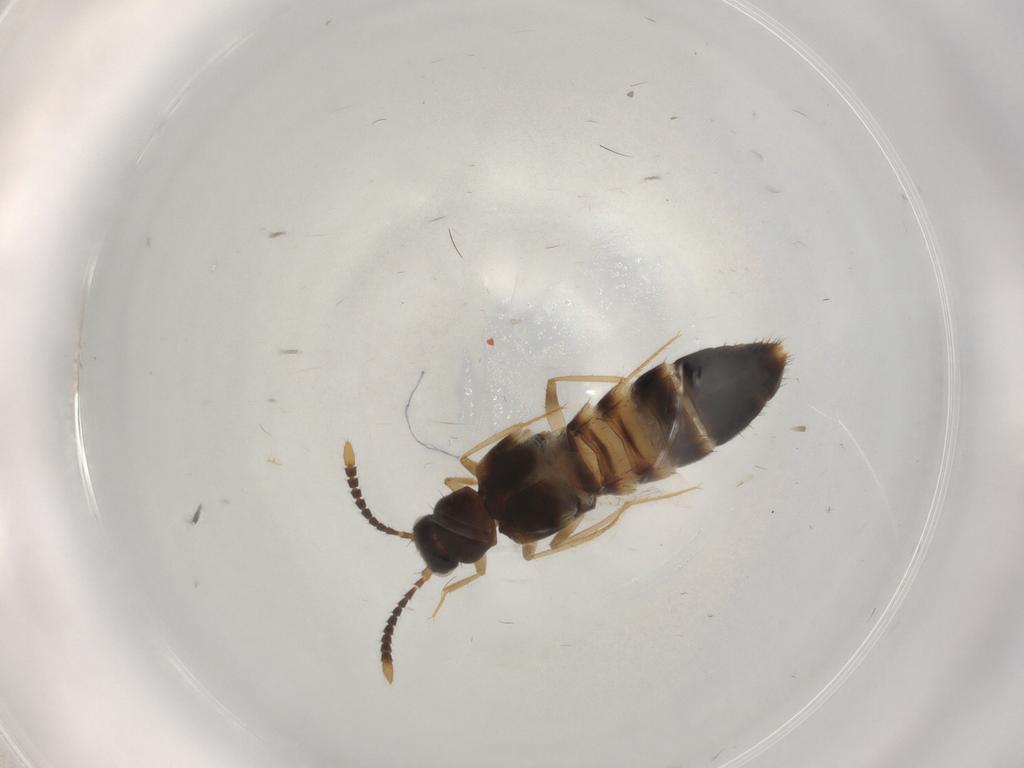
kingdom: Animalia
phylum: Arthropoda
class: Insecta
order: Coleoptera
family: Staphylinidae
